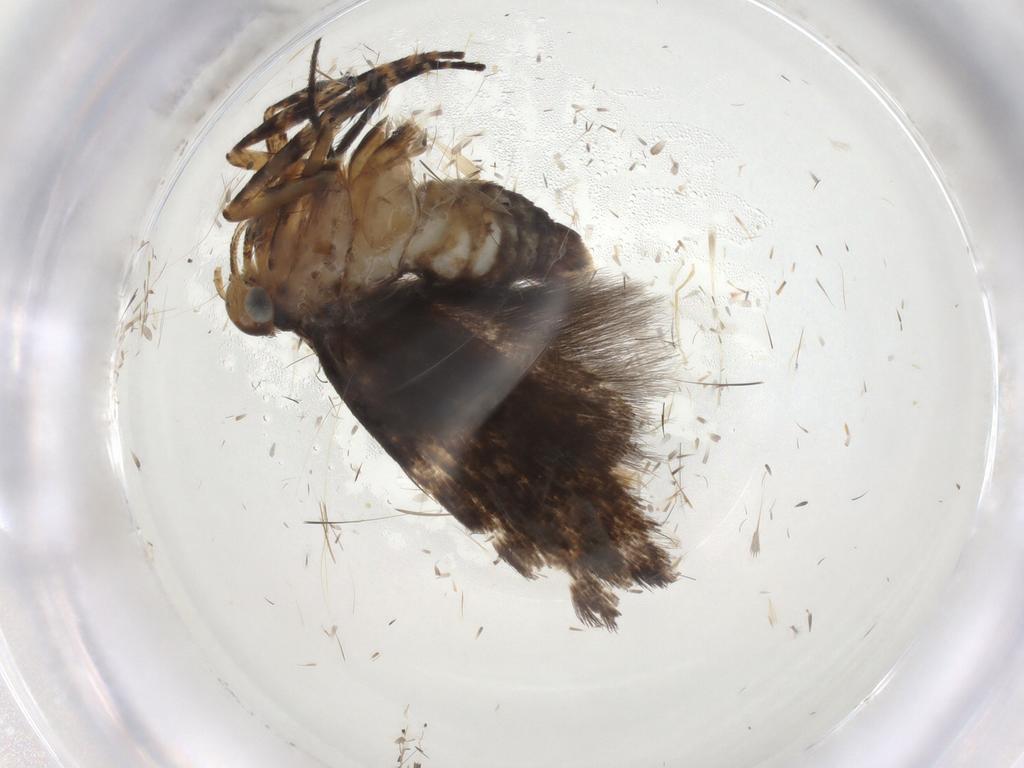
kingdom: Animalia
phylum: Arthropoda
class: Insecta
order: Lepidoptera
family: Gelechiidae
